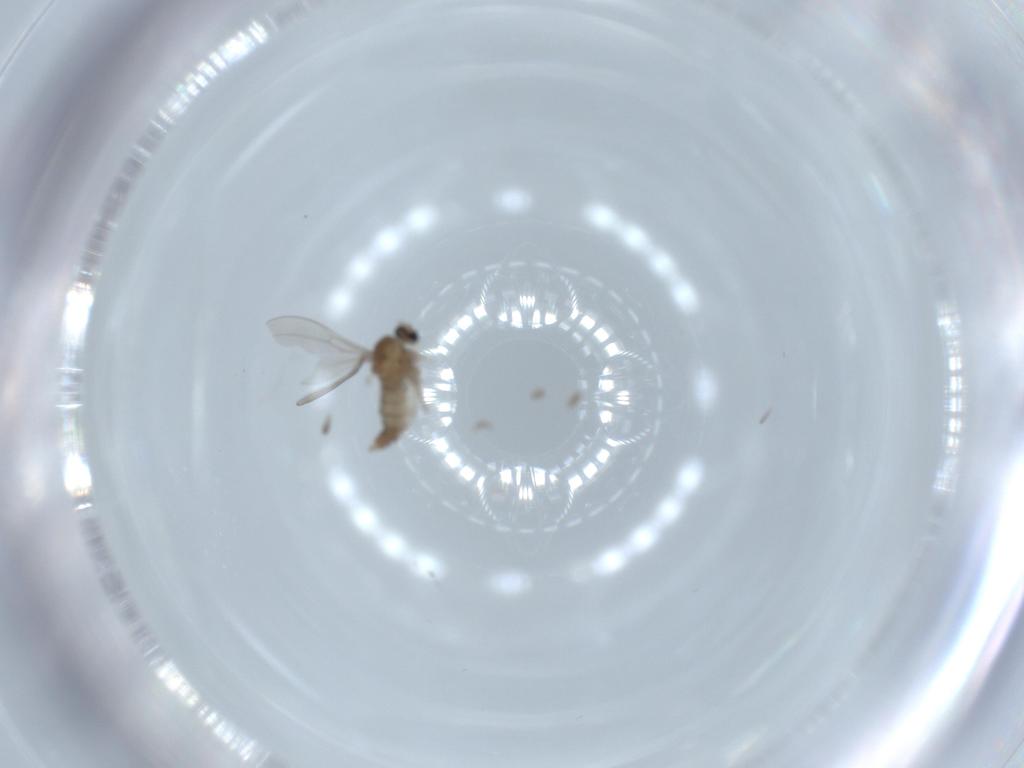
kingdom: Animalia
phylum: Arthropoda
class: Insecta
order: Diptera
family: Cecidomyiidae
